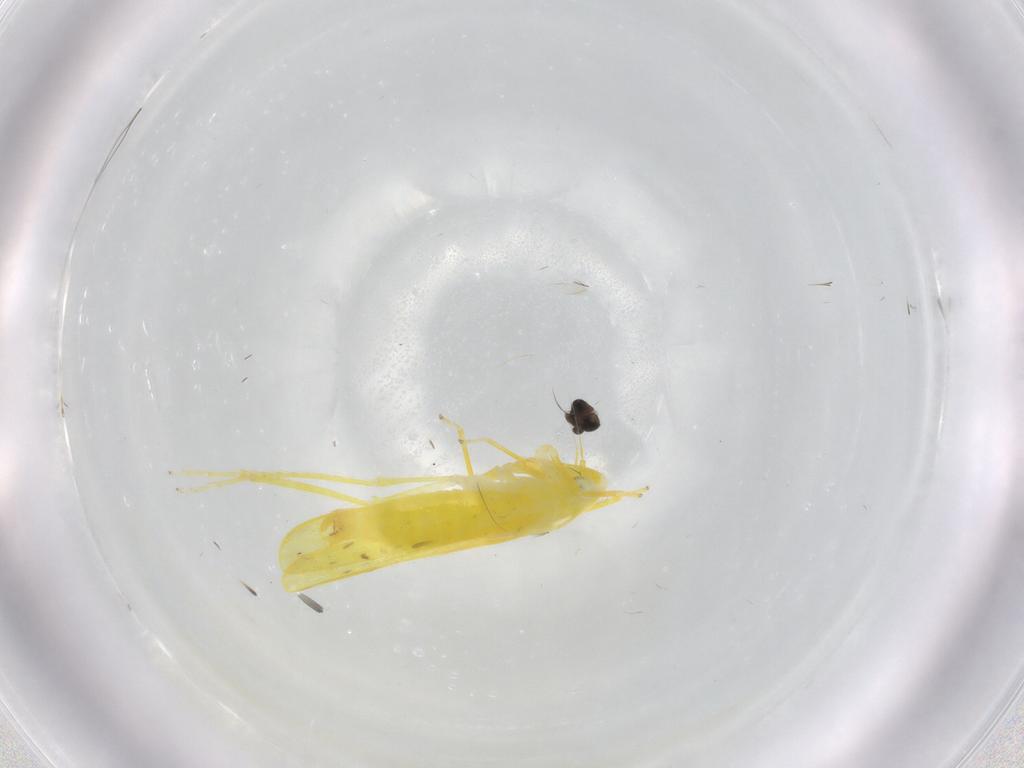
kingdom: Animalia
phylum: Arthropoda
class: Insecta
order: Hemiptera
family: Cicadellidae
